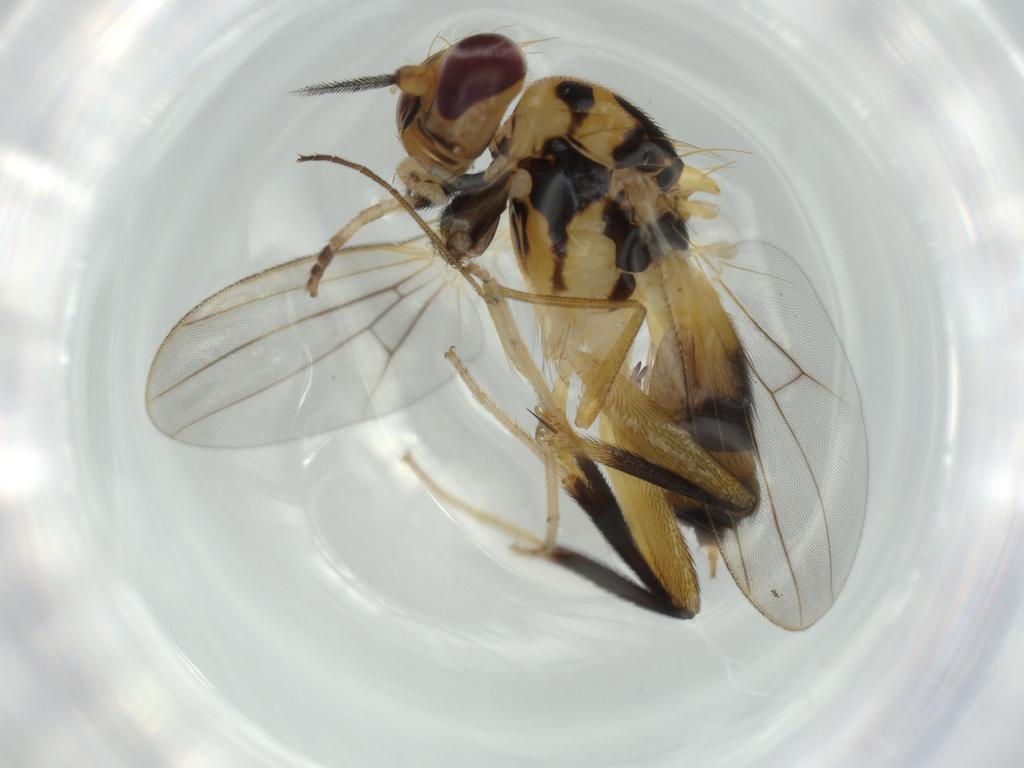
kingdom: Animalia
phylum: Arthropoda
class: Insecta
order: Diptera
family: Clusiidae
